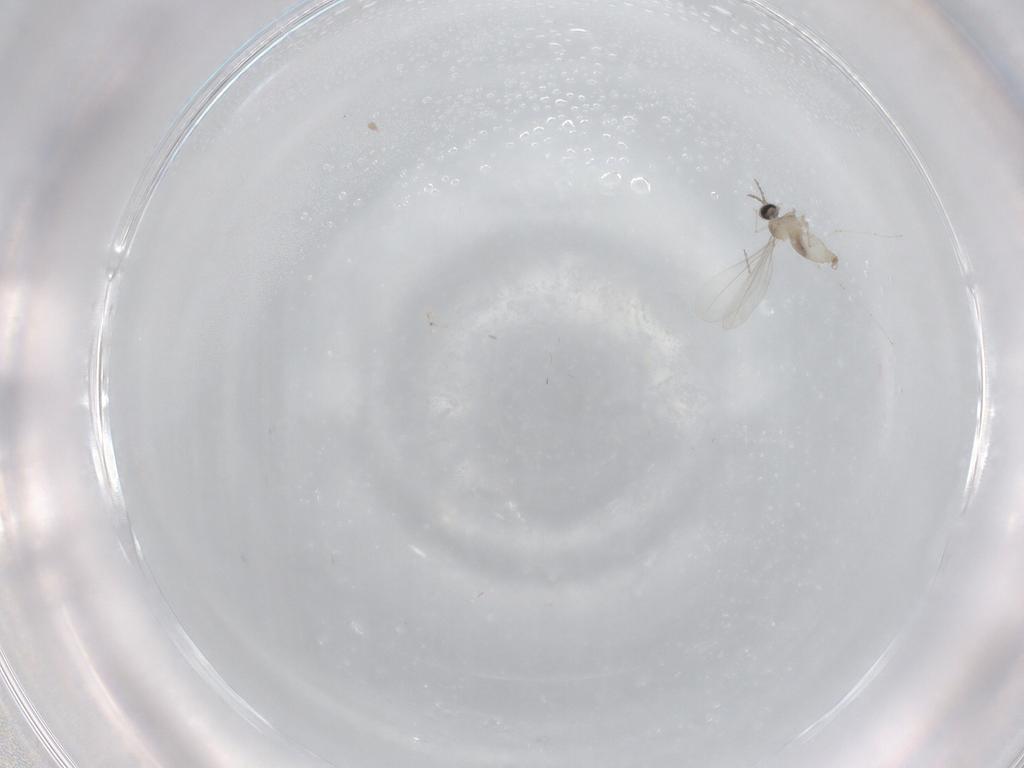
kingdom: Animalia
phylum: Arthropoda
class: Insecta
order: Diptera
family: Cecidomyiidae
